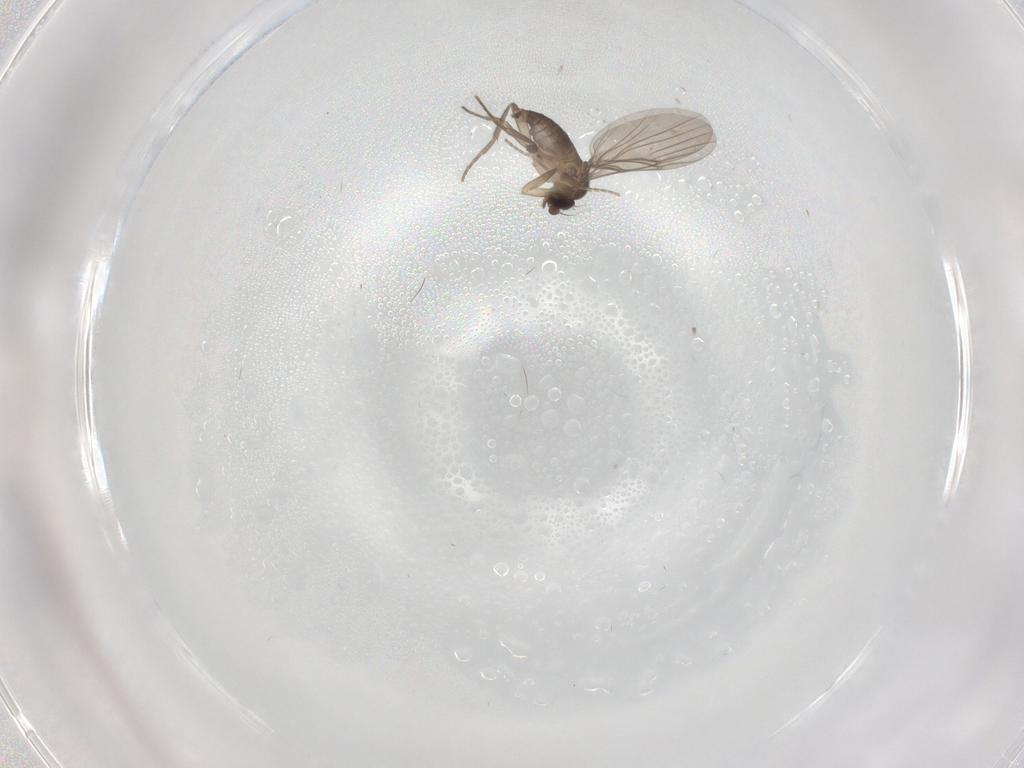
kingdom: Animalia
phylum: Arthropoda
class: Insecta
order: Diptera
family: Phoridae
